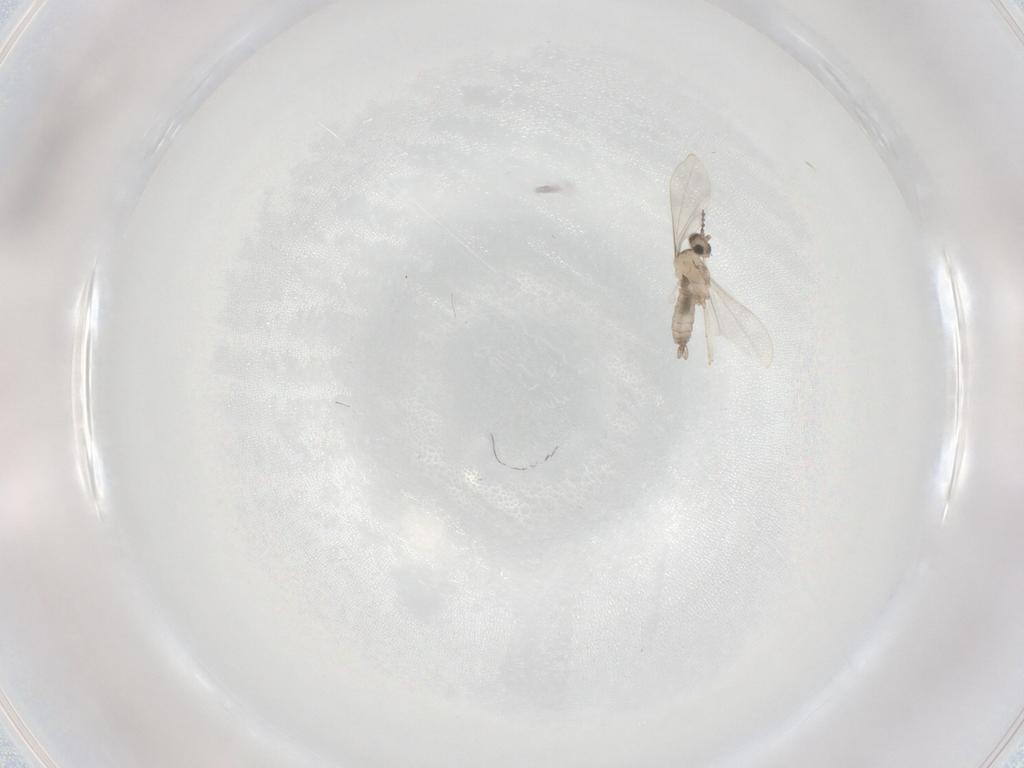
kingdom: Animalia
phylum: Arthropoda
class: Insecta
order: Diptera
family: Cecidomyiidae
